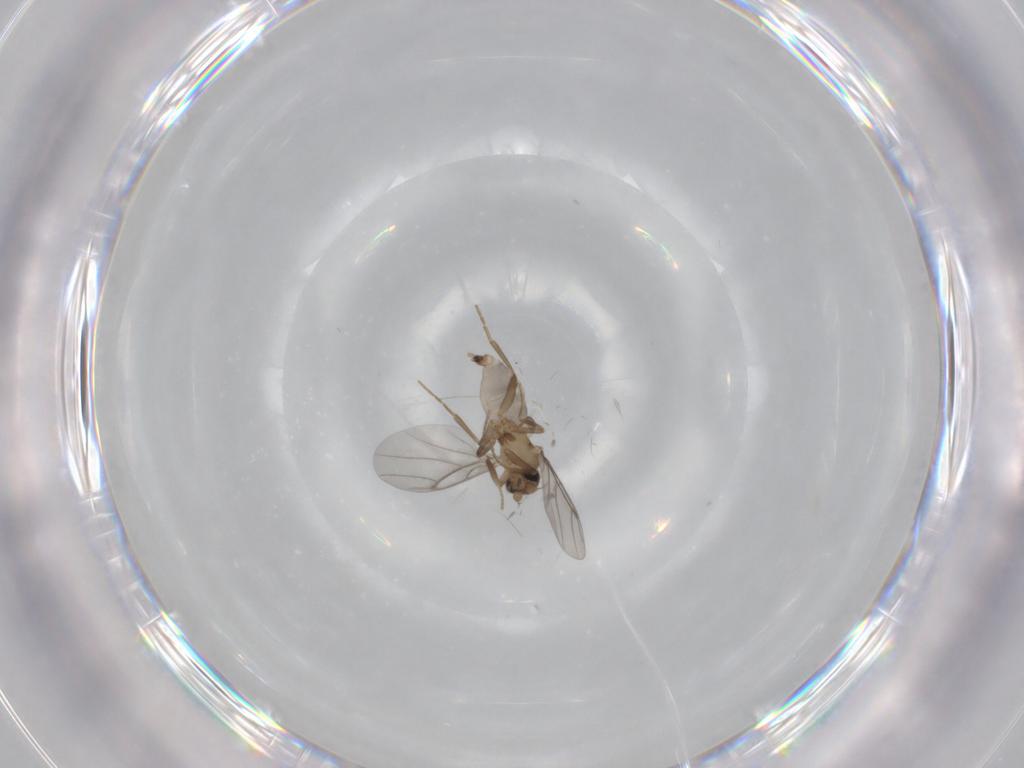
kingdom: Animalia
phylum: Arthropoda
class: Insecta
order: Diptera
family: Cecidomyiidae
